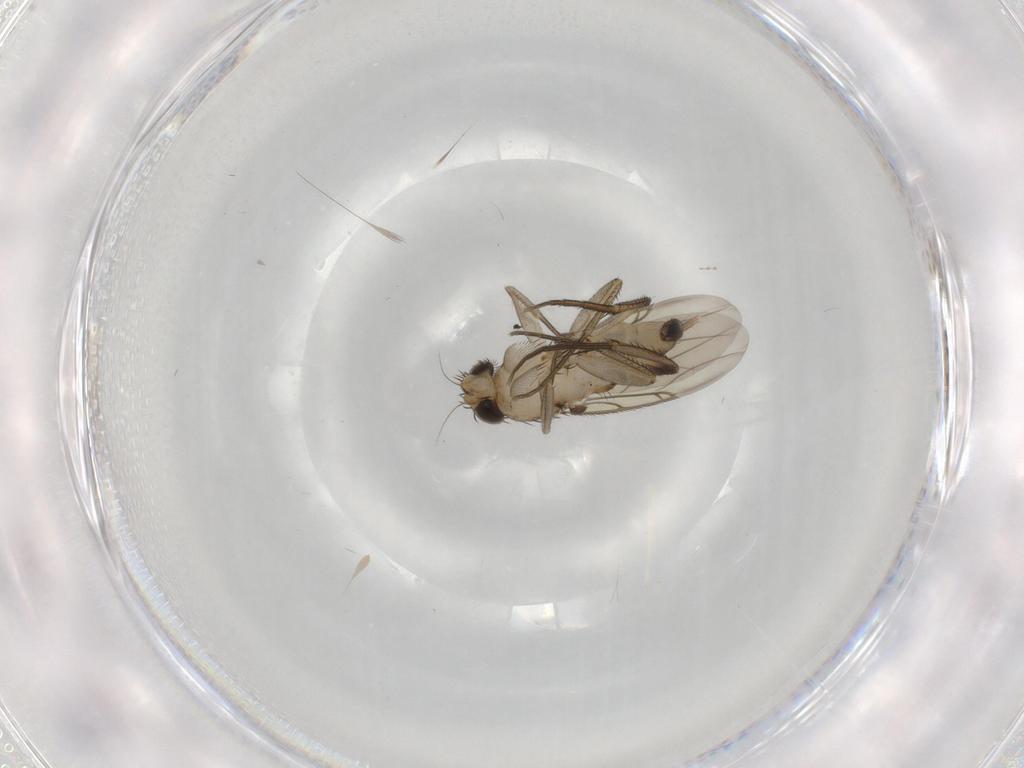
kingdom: Animalia
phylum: Arthropoda
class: Insecta
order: Diptera
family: Phoridae
